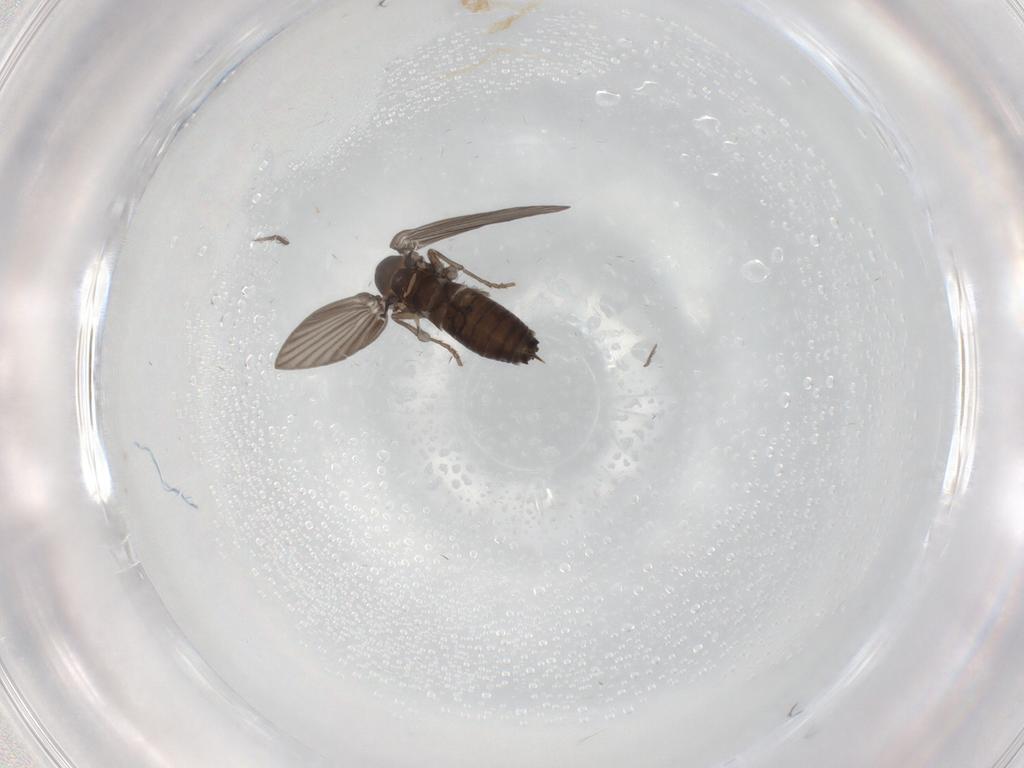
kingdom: Animalia
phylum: Arthropoda
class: Insecta
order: Diptera
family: Psychodidae
